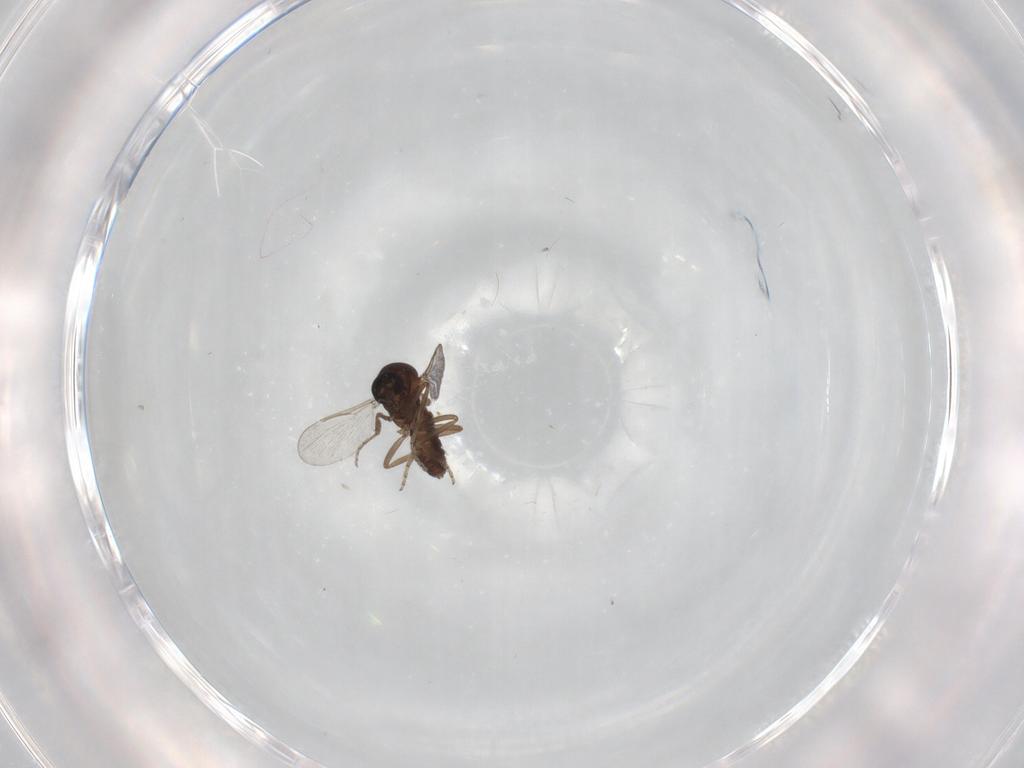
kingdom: Animalia
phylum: Arthropoda
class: Insecta
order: Diptera
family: Ceratopogonidae
